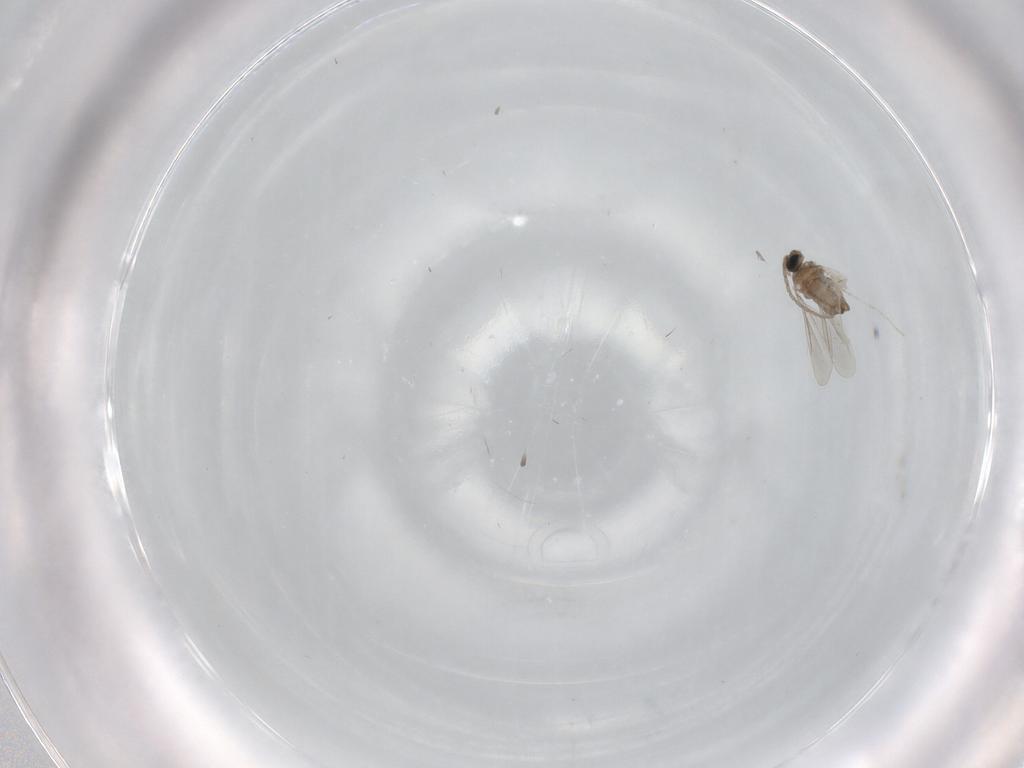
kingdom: Animalia
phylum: Arthropoda
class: Insecta
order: Diptera
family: Cecidomyiidae
